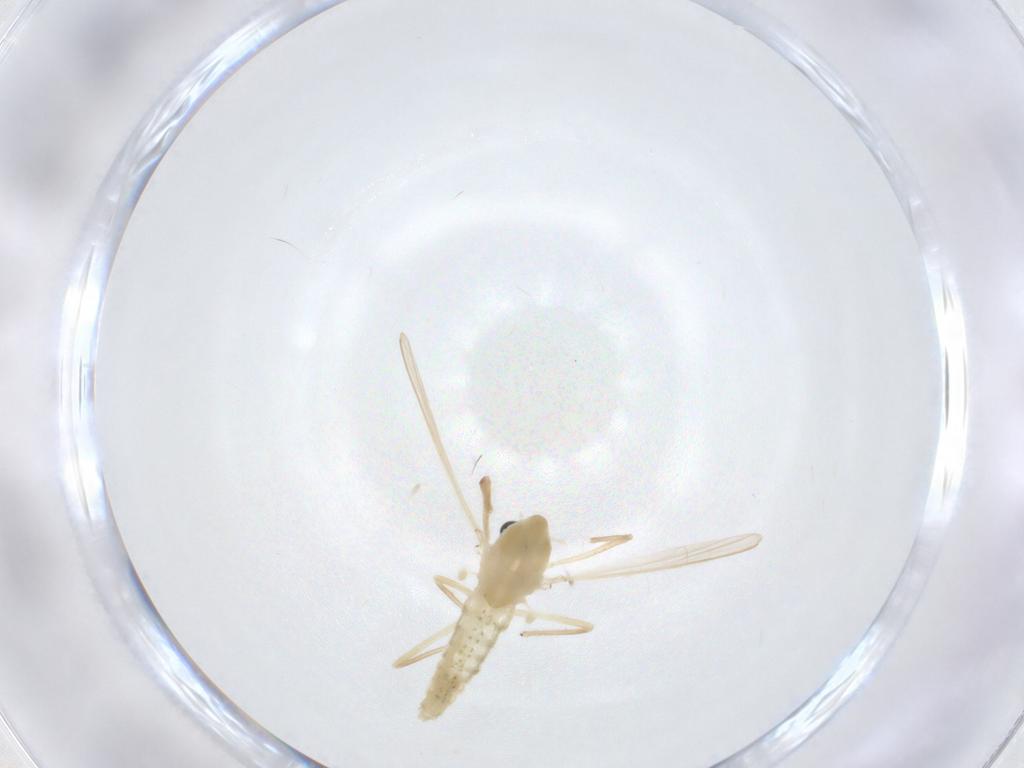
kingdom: Animalia
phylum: Arthropoda
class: Insecta
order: Diptera
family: Chironomidae
